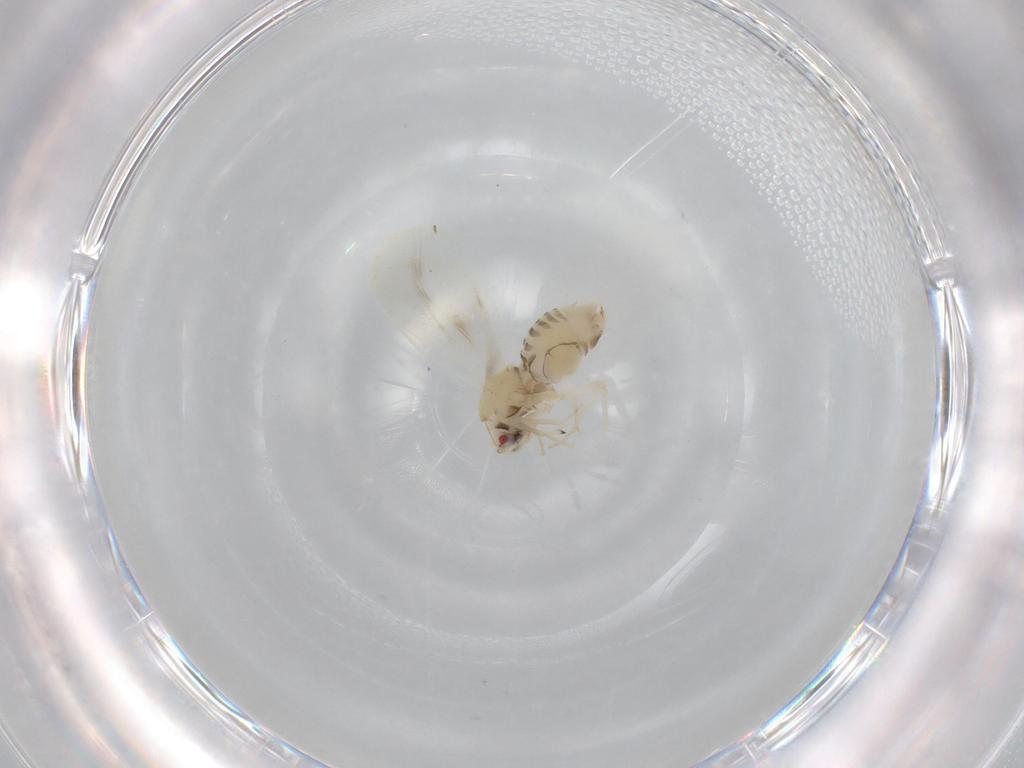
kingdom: Animalia
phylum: Arthropoda
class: Insecta
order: Hemiptera
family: Aleyrodidae
